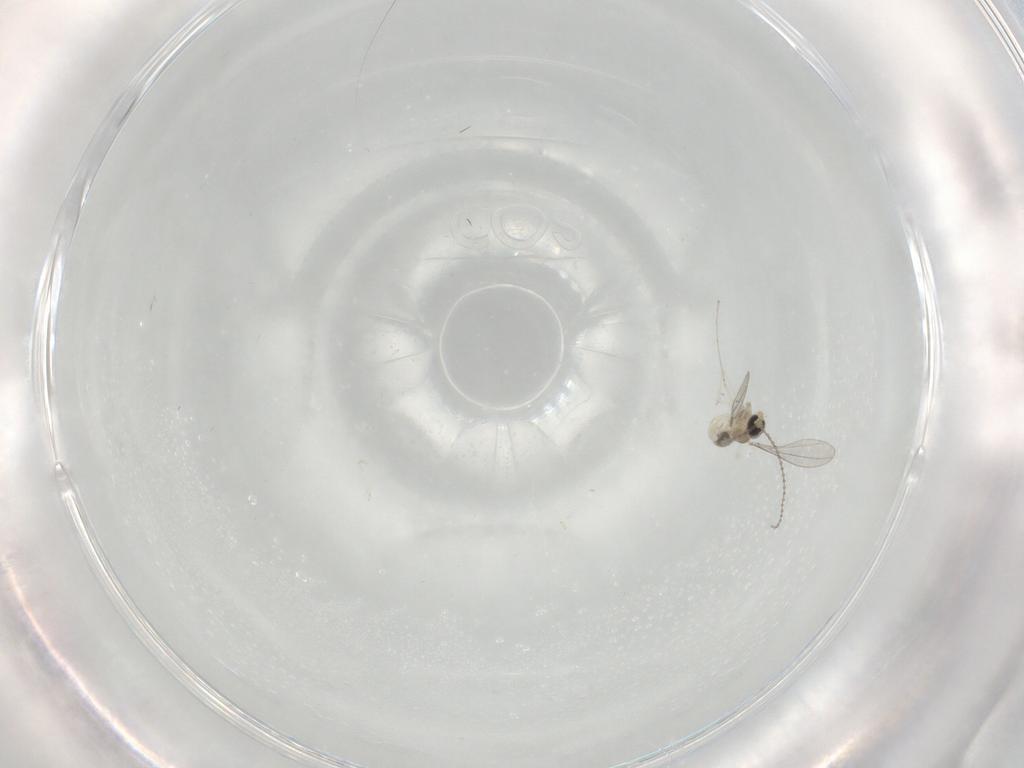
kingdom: Animalia
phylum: Arthropoda
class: Insecta
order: Diptera
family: Cecidomyiidae
